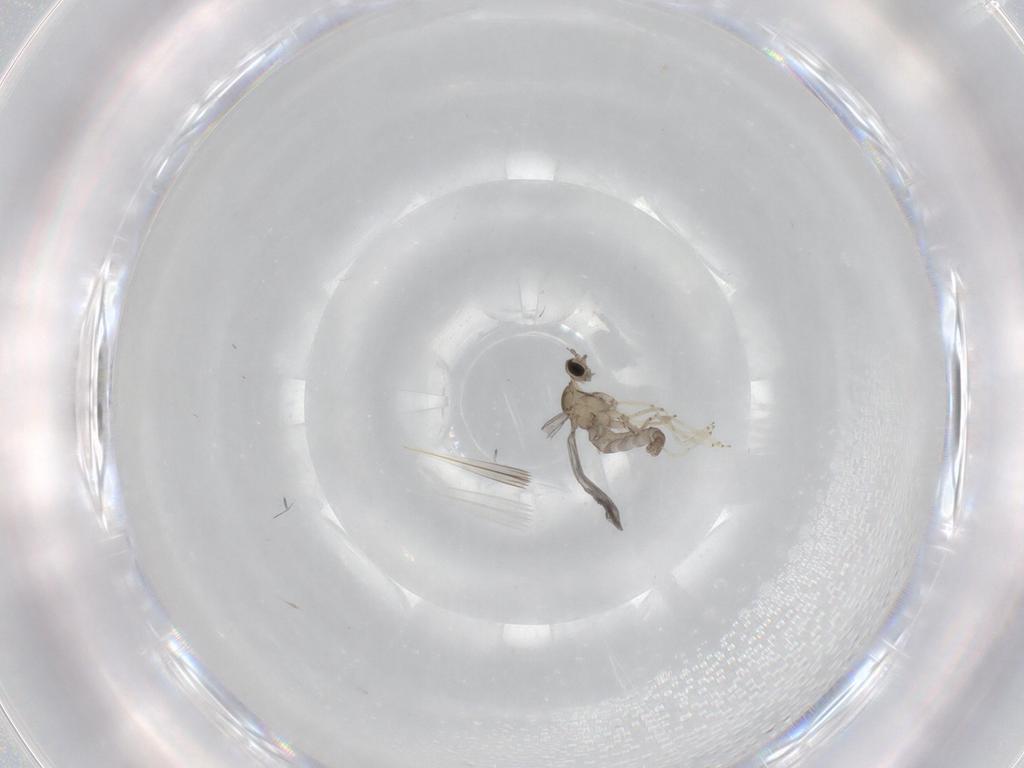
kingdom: Animalia
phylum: Arthropoda
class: Insecta
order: Diptera
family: Cecidomyiidae
